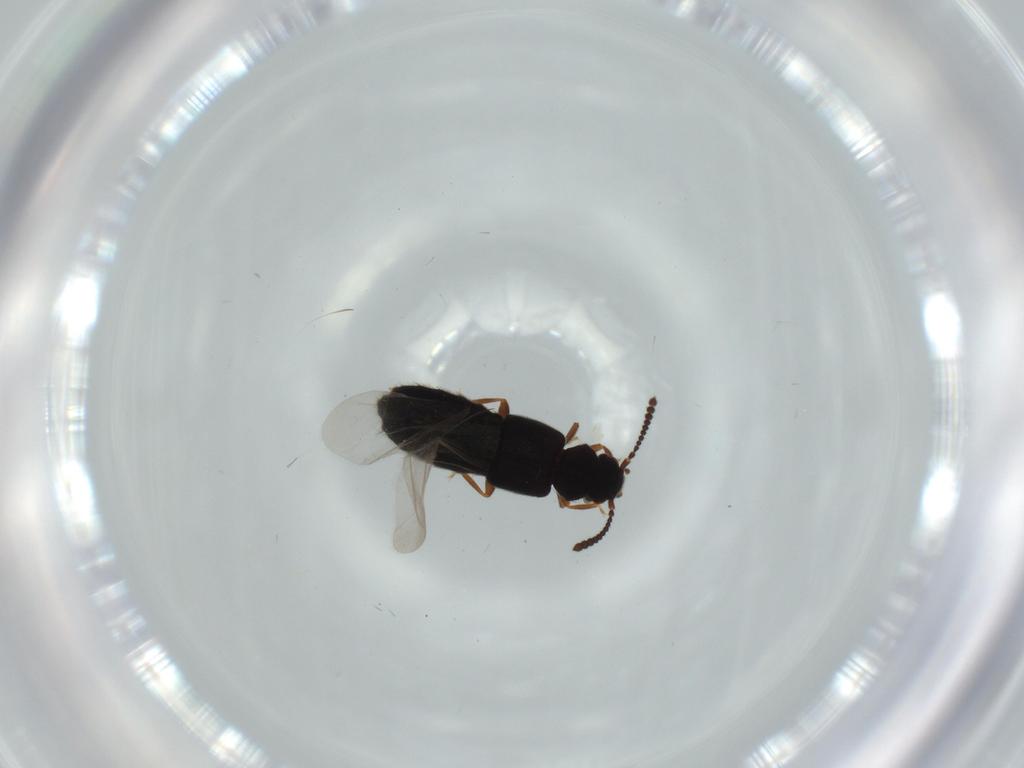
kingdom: Animalia
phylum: Arthropoda
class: Insecta
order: Coleoptera
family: Staphylinidae
